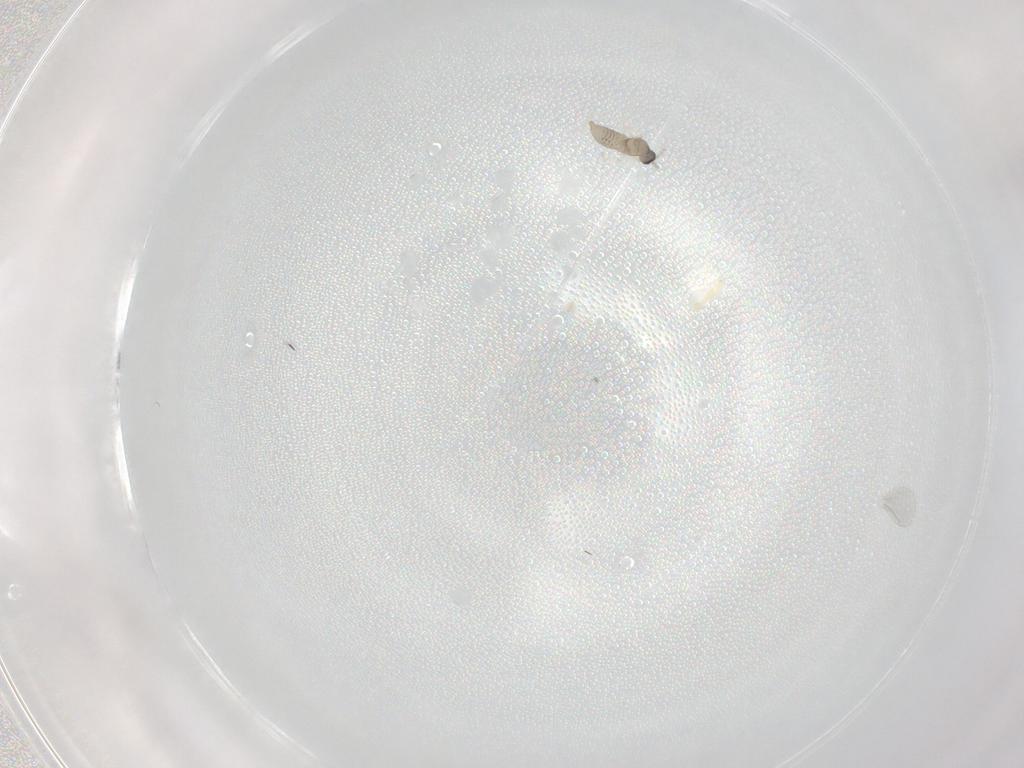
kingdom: Animalia
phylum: Arthropoda
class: Insecta
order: Diptera
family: Cecidomyiidae
